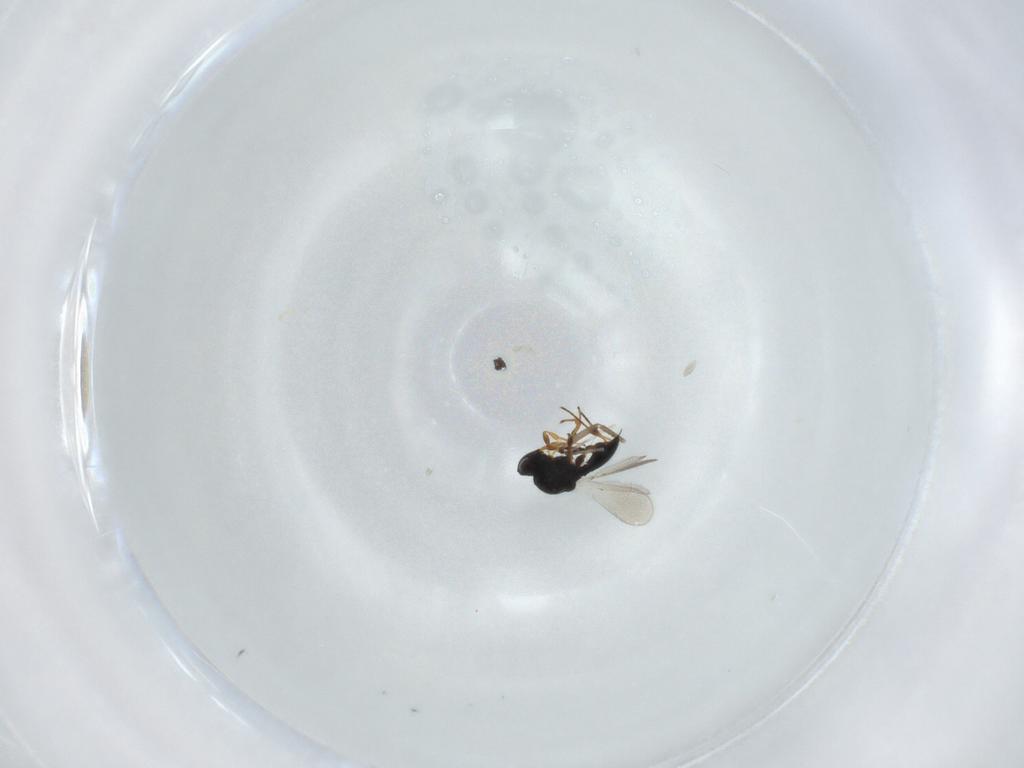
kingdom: Animalia
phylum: Arthropoda
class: Insecta
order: Hymenoptera
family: Platygastridae
